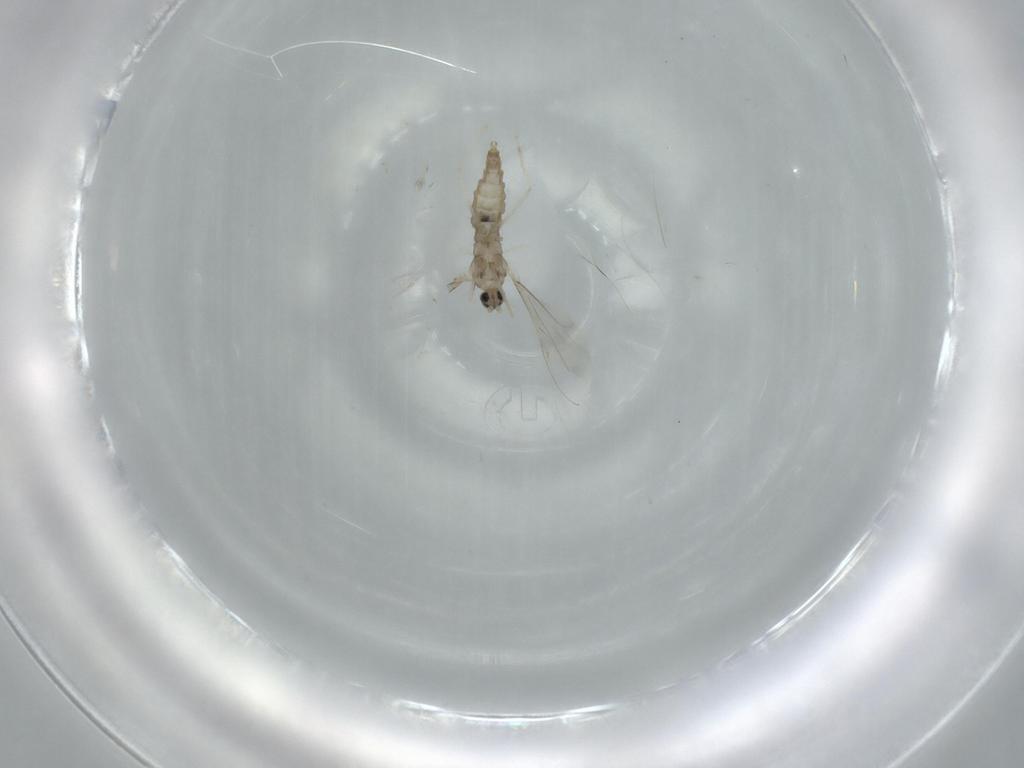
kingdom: Animalia
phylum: Arthropoda
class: Insecta
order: Diptera
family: Cecidomyiidae
